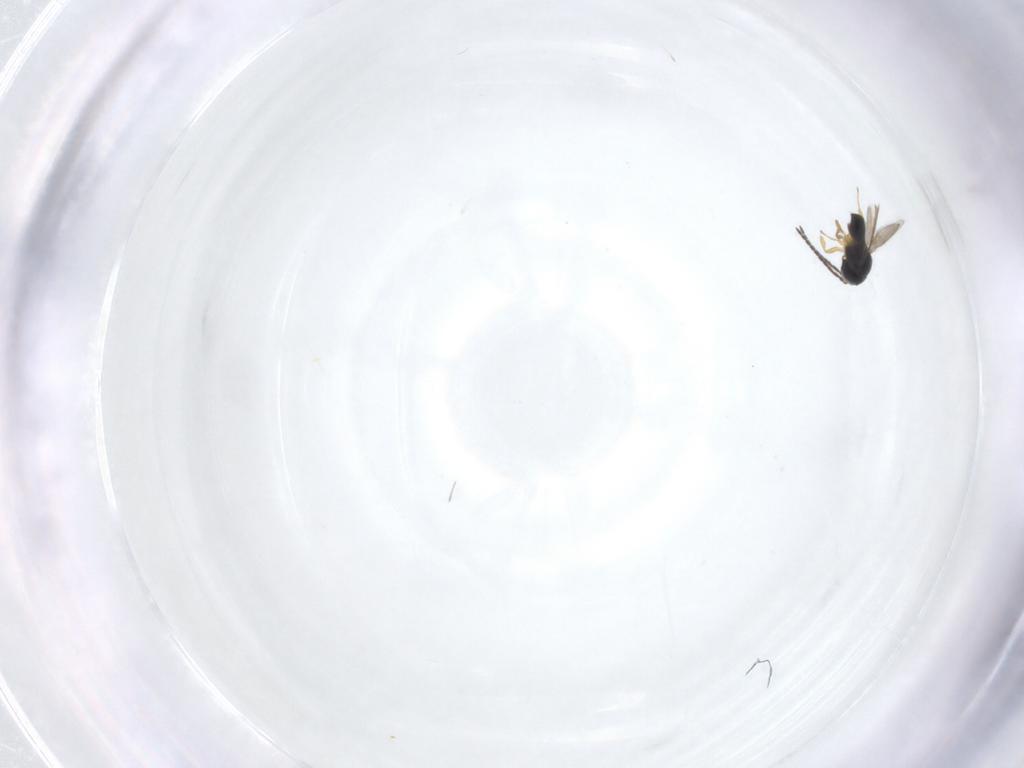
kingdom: Animalia
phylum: Arthropoda
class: Insecta
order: Hymenoptera
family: Scelionidae
